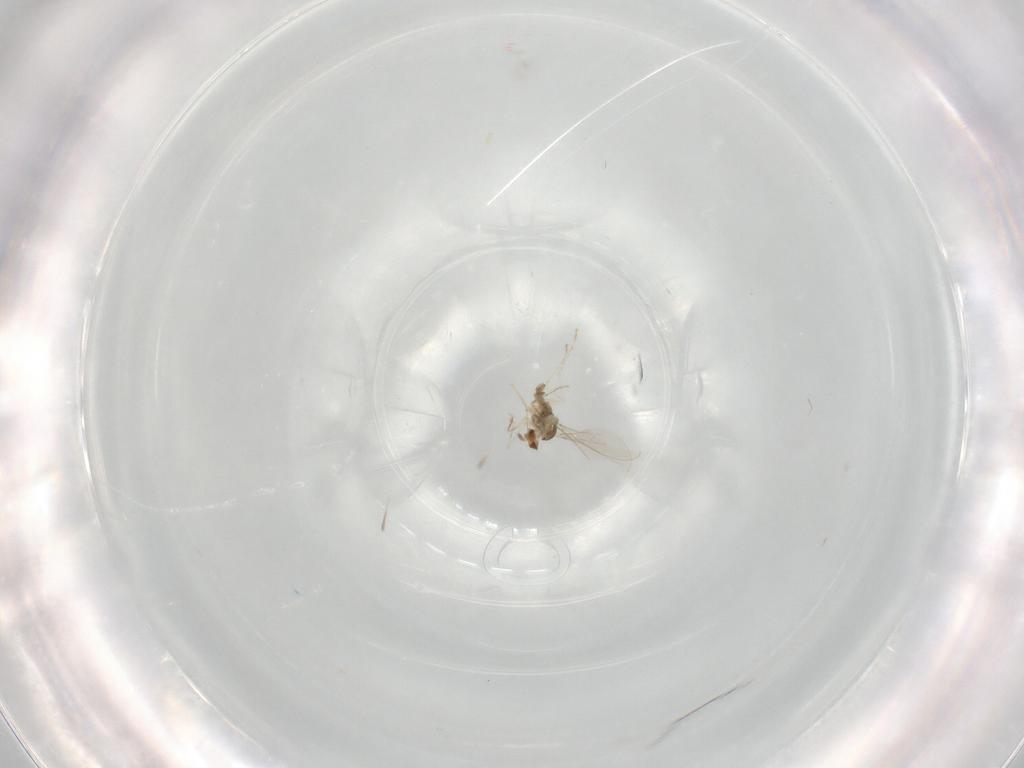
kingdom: Animalia
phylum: Arthropoda
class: Insecta
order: Diptera
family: Cecidomyiidae
